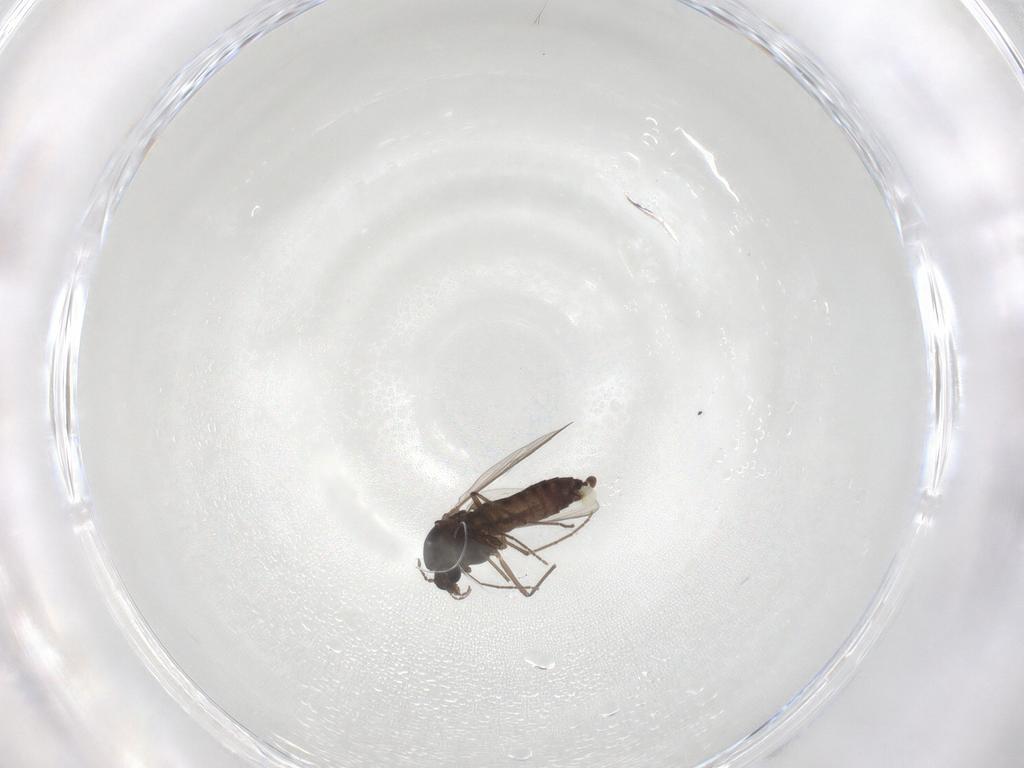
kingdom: Animalia
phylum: Arthropoda
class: Insecta
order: Diptera
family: Chironomidae
